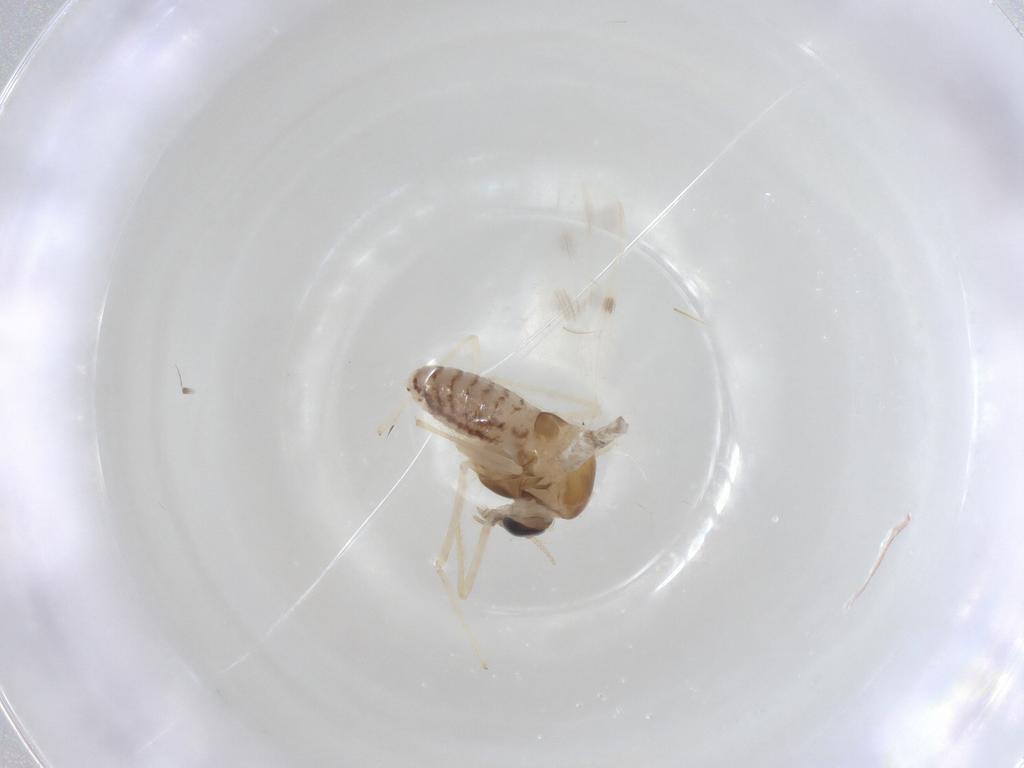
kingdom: Animalia
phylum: Arthropoda
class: Insecta
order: Diptera
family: Chironomidae
